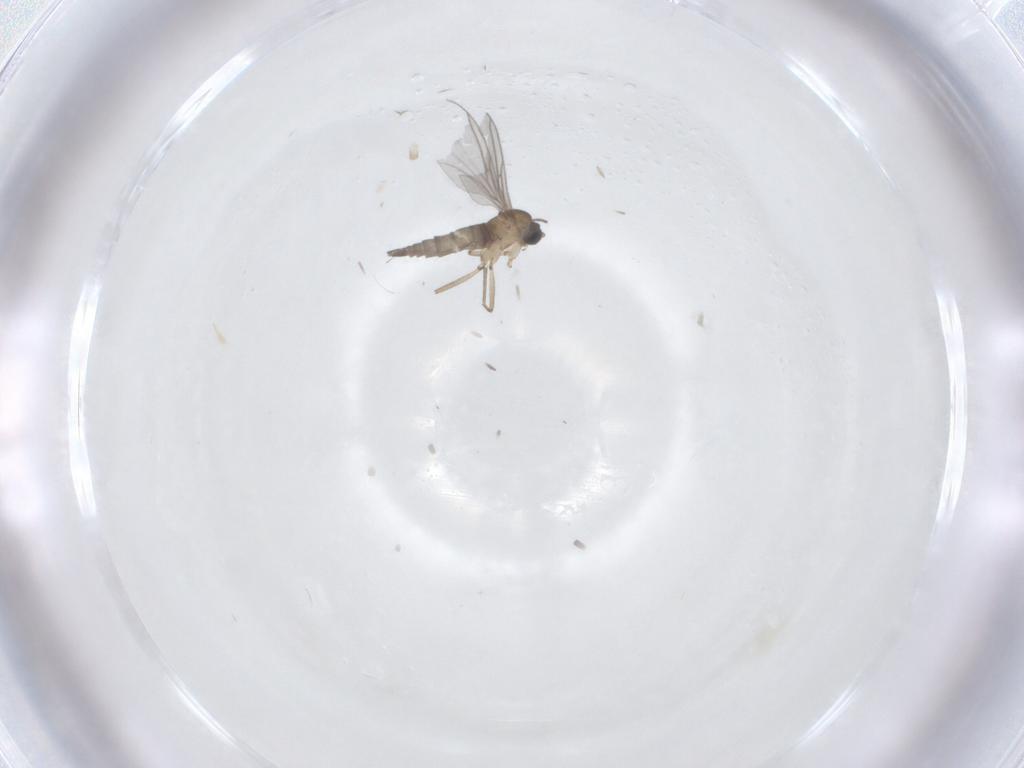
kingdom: Animalia
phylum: Arthropoda
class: Insecta
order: Diptera
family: Sciaridae
